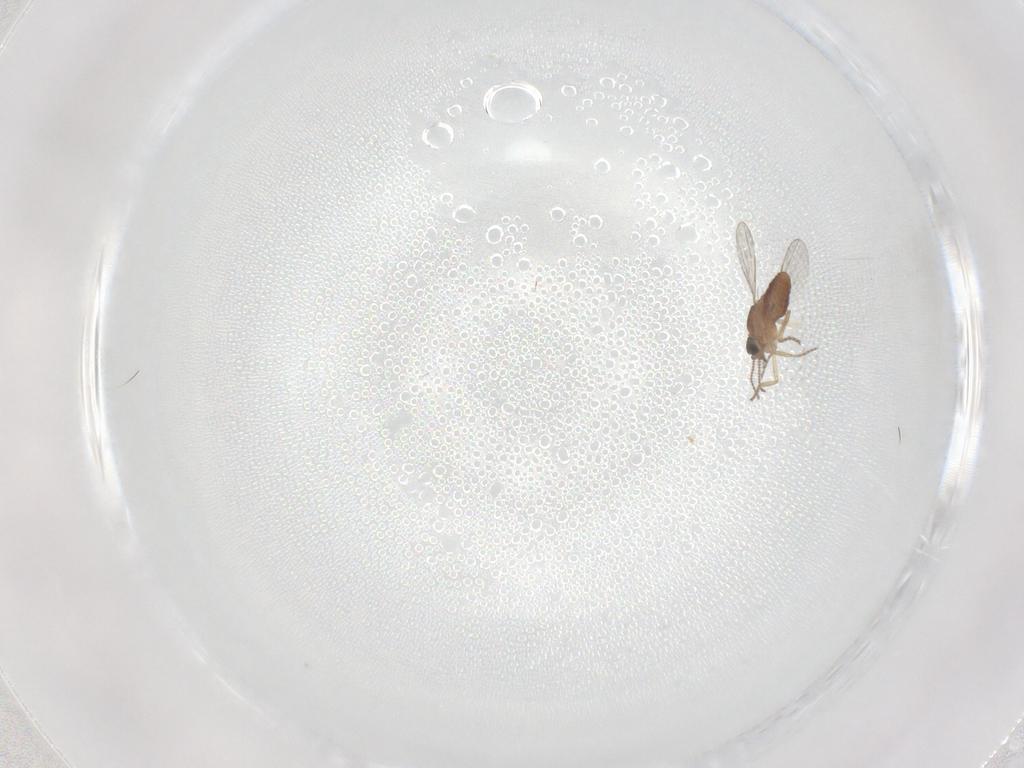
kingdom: Animalia
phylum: Arthropoda
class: Insecta
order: Diptera
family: Ceratopogonidae
